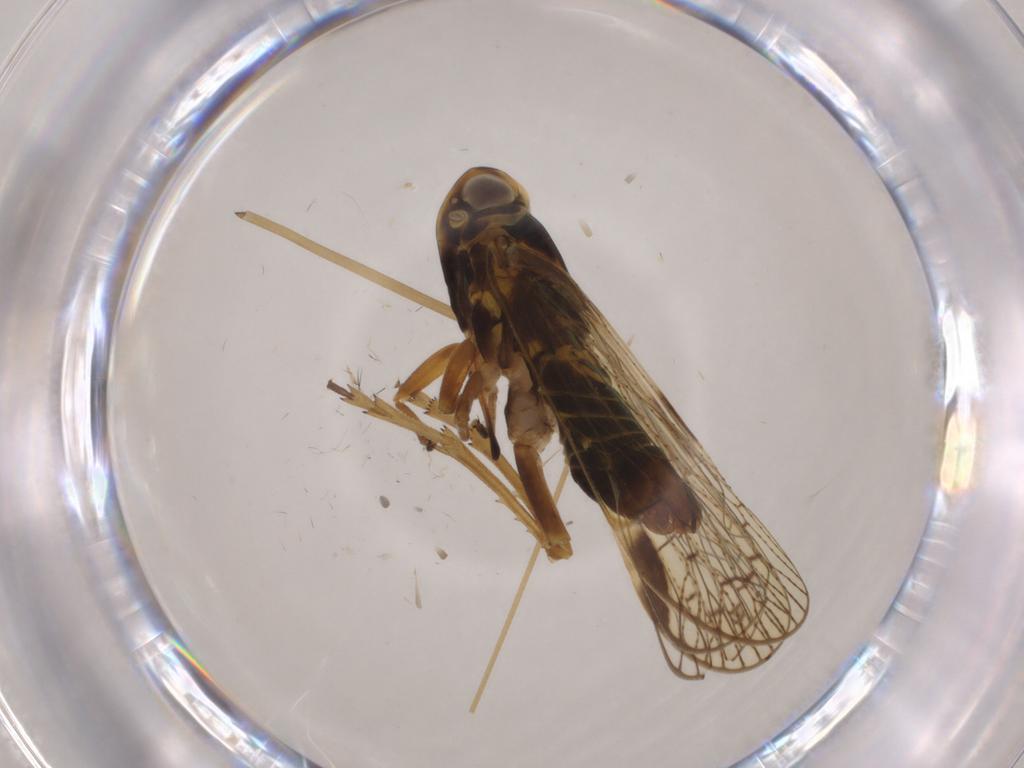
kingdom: Animalia
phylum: Arthropoda
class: Insecta
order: Hemiptera
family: Cixiidae
